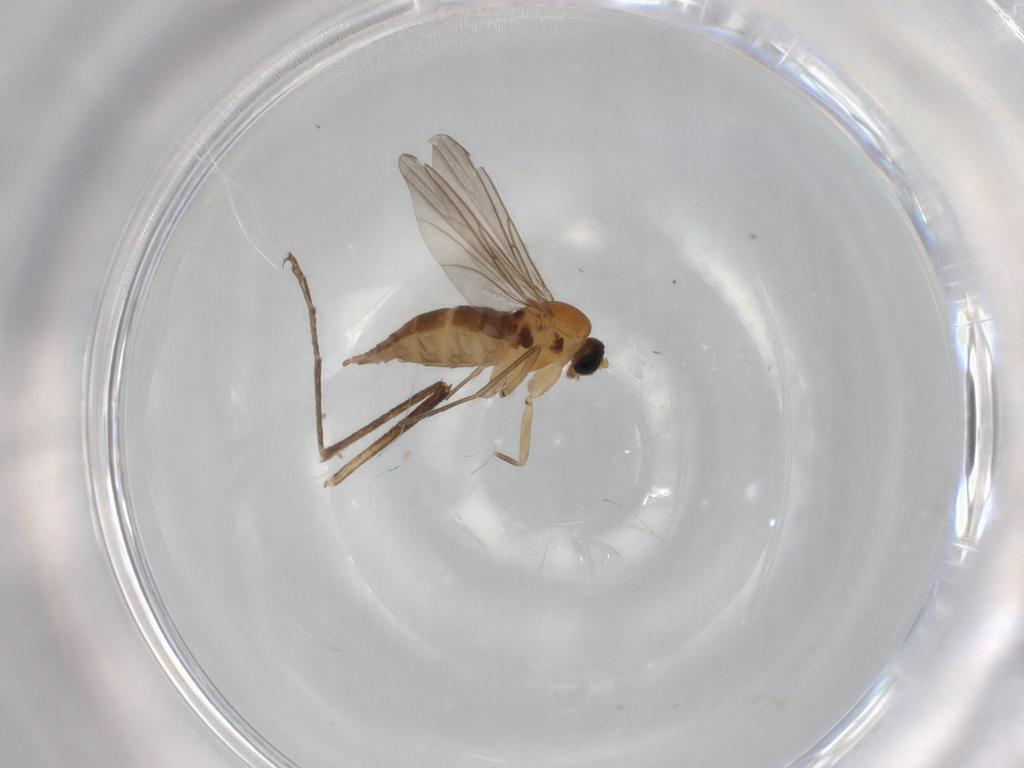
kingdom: Animalia
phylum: Arthropoda
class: Insecta
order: Diptera
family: Sciaridae
